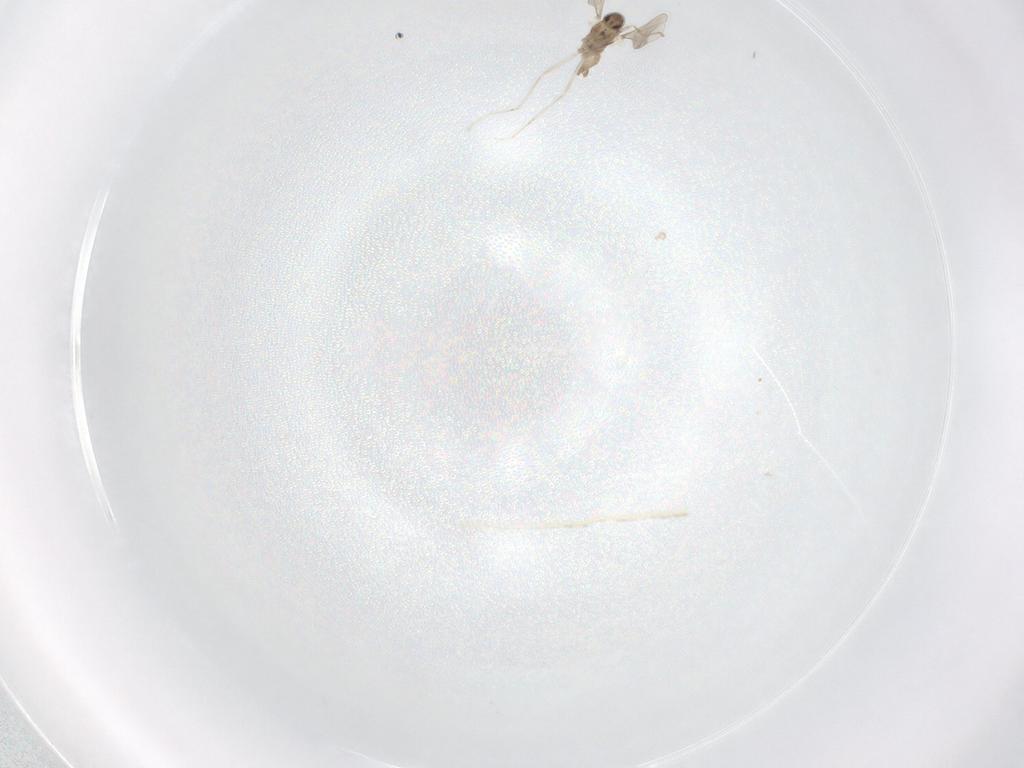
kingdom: Animalia
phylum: Arthropoda
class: Insecta
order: Diptera
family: Cecidomyiidae
